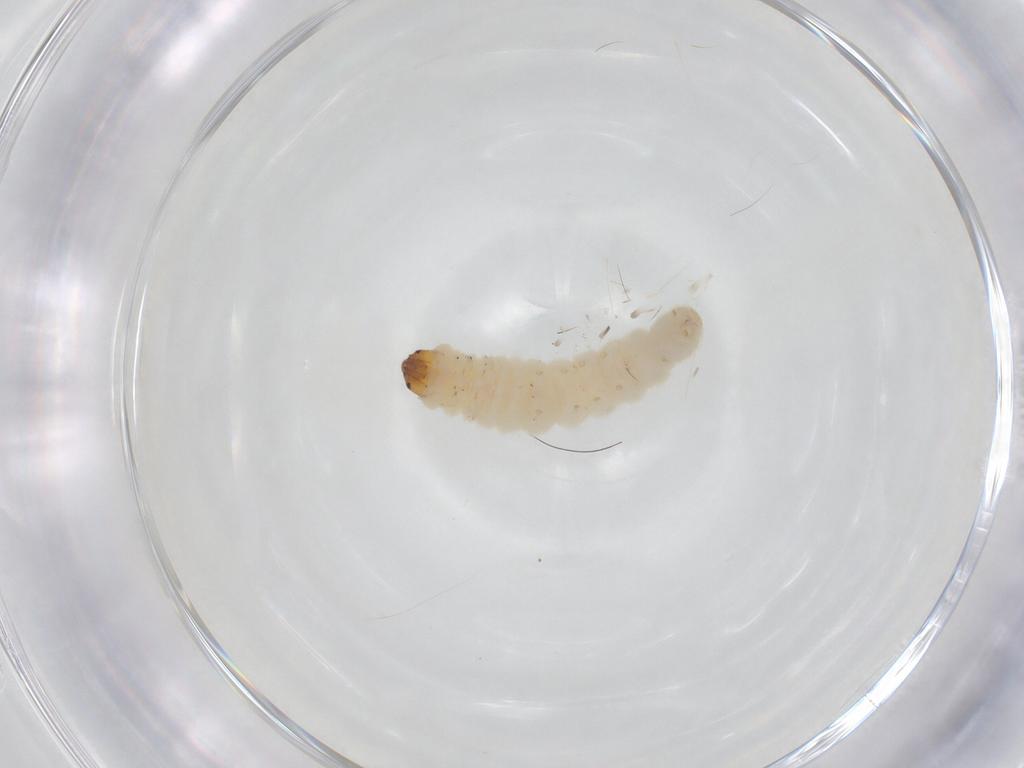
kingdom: Animalia
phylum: Arthropoda
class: Insecta
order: Lepidoptera
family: Gelechiidae
